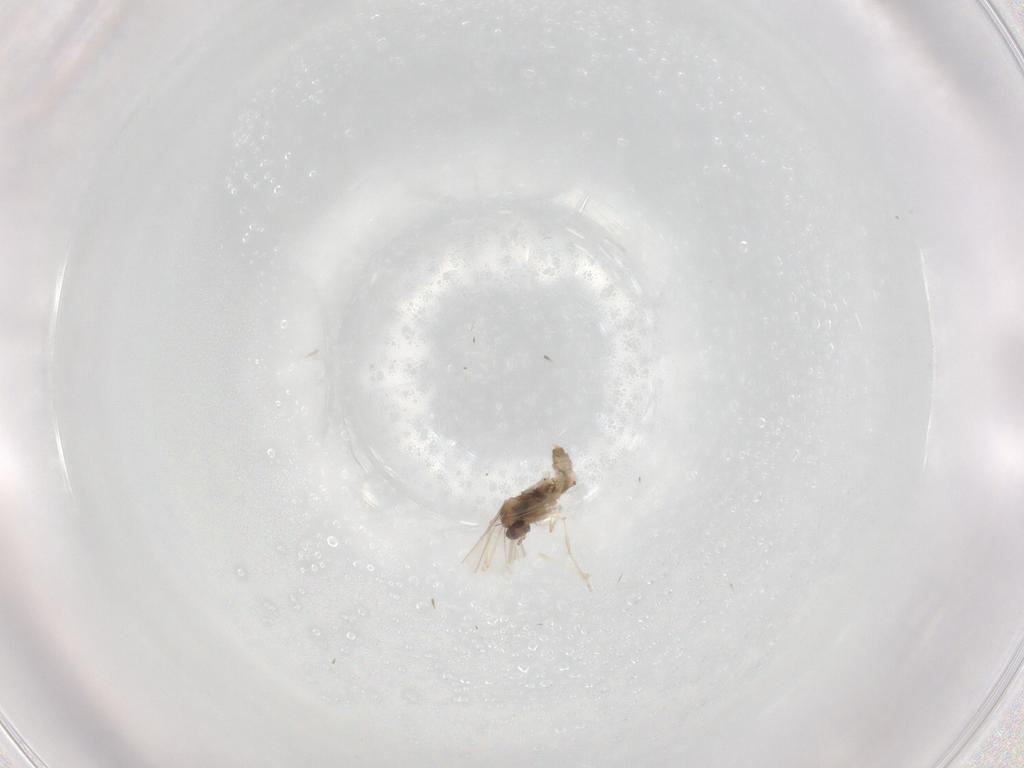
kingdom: Animalia
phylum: Arthropoda
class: Insecta
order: Diptera
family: Cecidomyiidae
